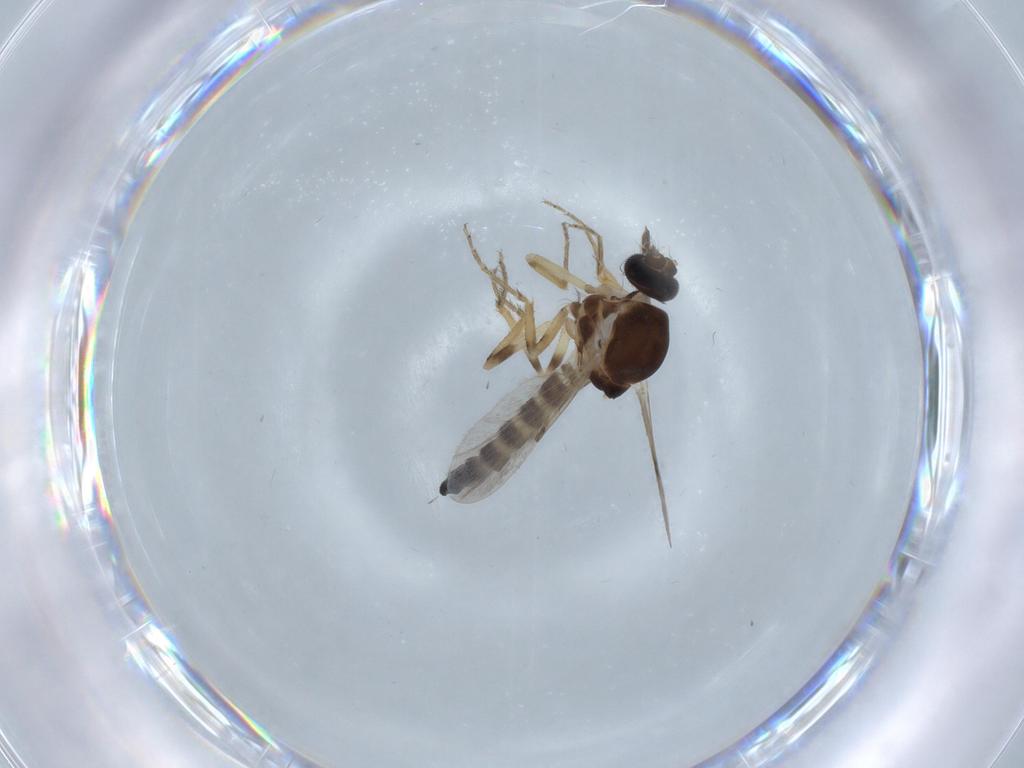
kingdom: Animalia
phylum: Arthropoda
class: Insecta
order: Diptera
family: Ceratopogonidae
